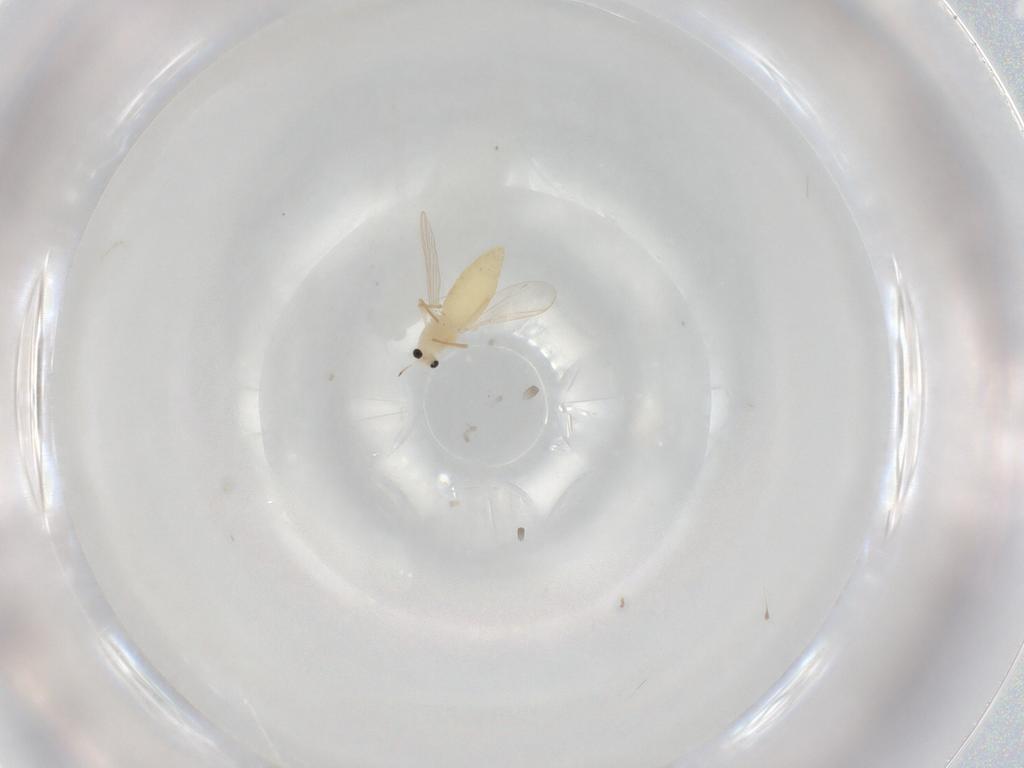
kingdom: Animalia
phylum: Arthropoda
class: Insecta
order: Diptera
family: Chironomidae
